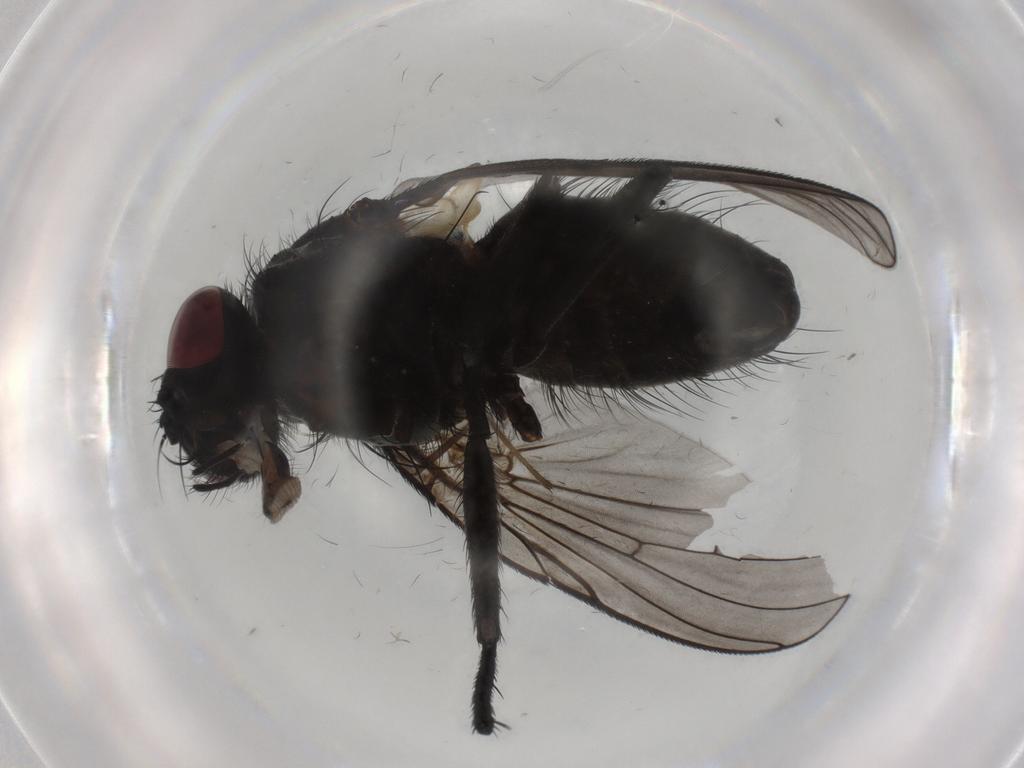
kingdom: Animalia
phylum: Arthropoda
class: Insecta
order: Diptera
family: Muscidae
